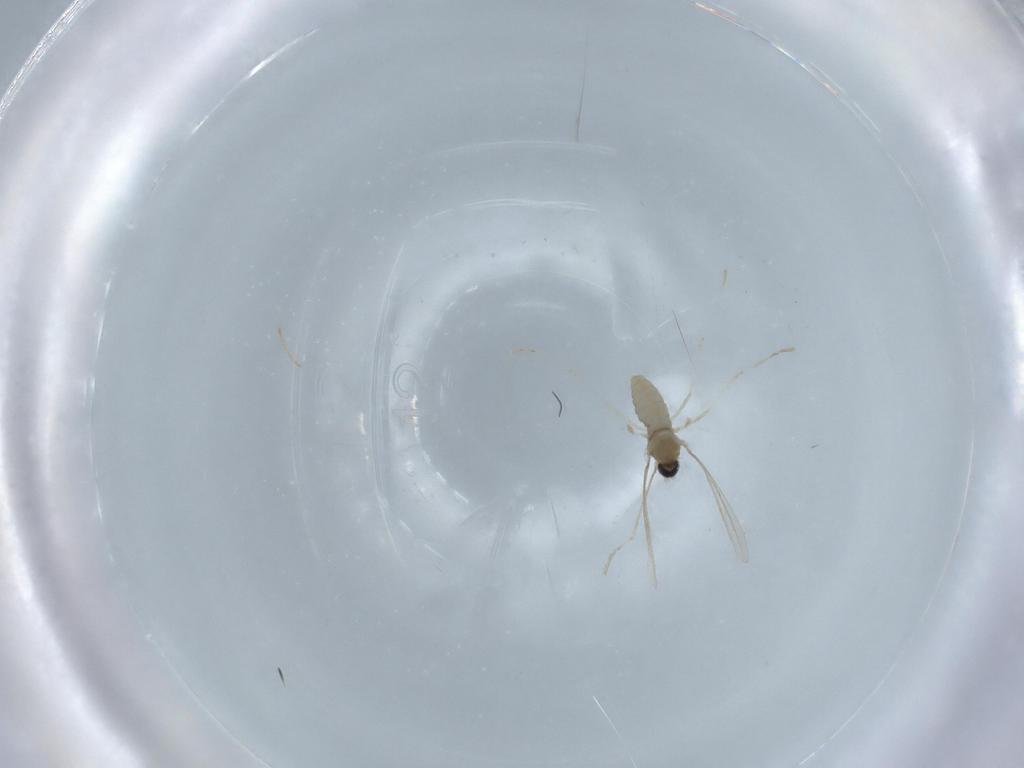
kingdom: Animalia
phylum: Arthropoda
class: Insecta
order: Diptera
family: Cecidomyiidae
